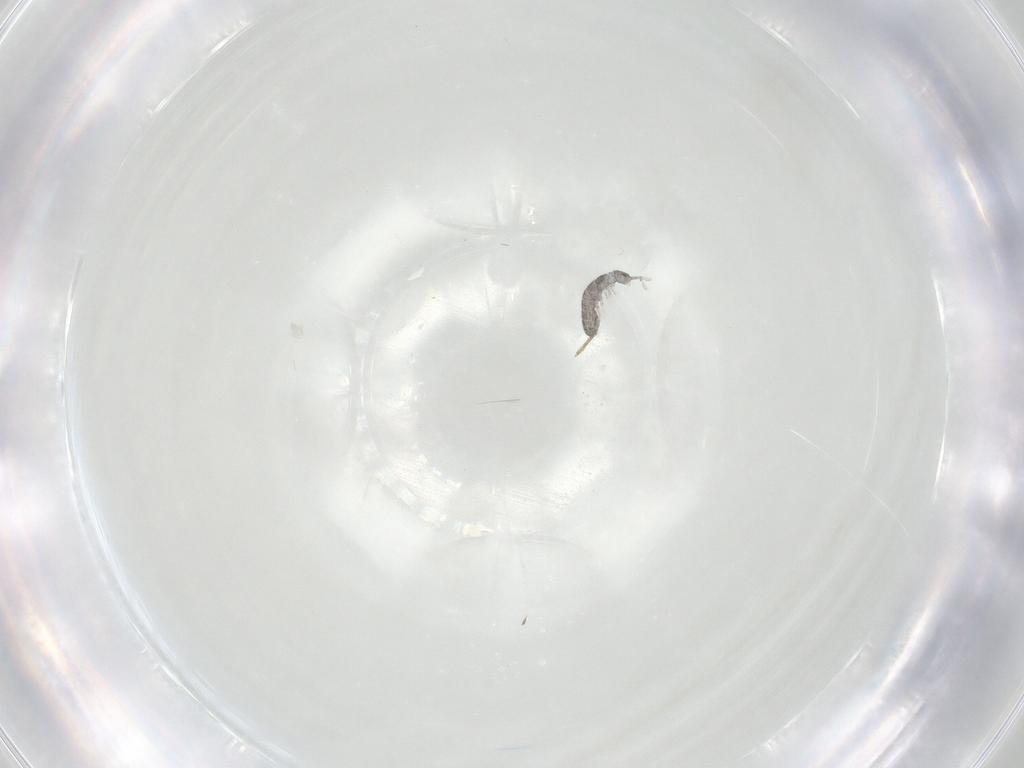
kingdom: Animalia
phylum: Arthropoda
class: Collembola
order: Entomobryomorpha
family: Isotomidae
